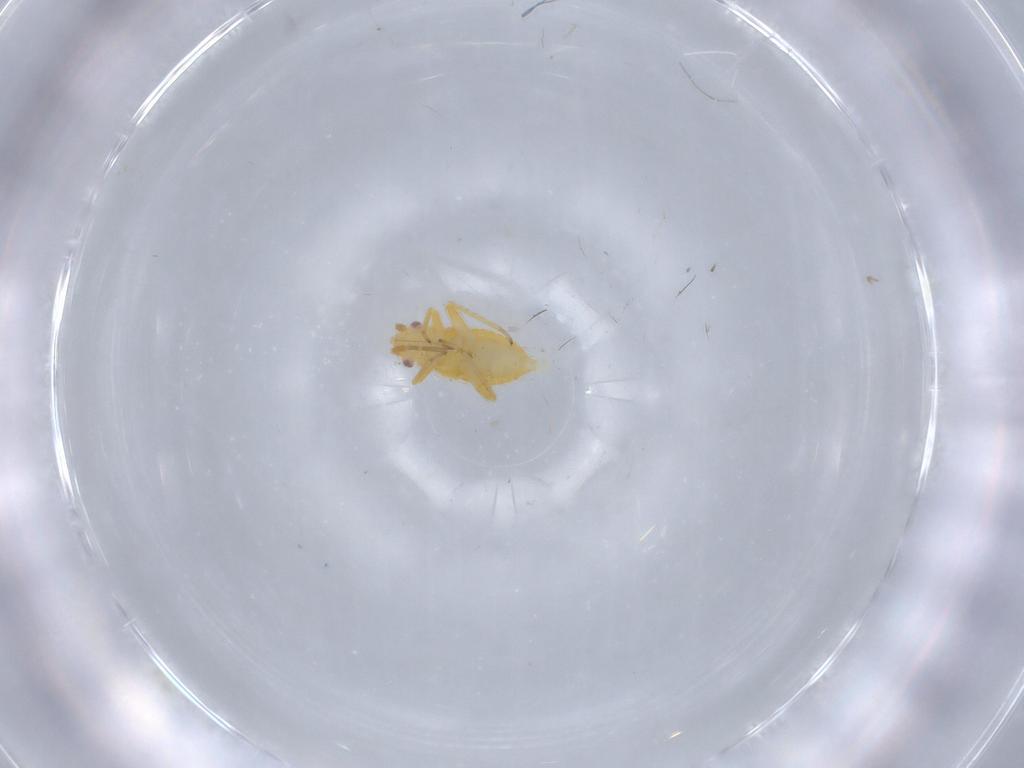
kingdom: Animalia
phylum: Arthropoda
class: Insecta
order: Hemiptera
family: Miridae
